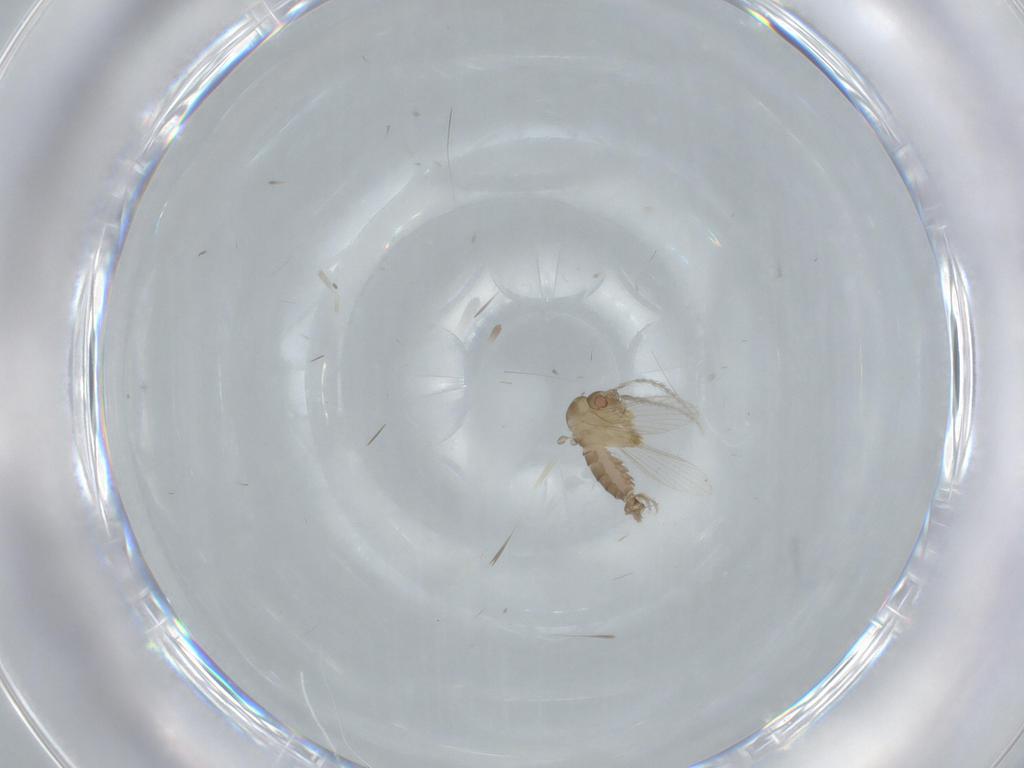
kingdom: Animalia
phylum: Arthropoda
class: Insecta
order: Diptera
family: Psychodidae
